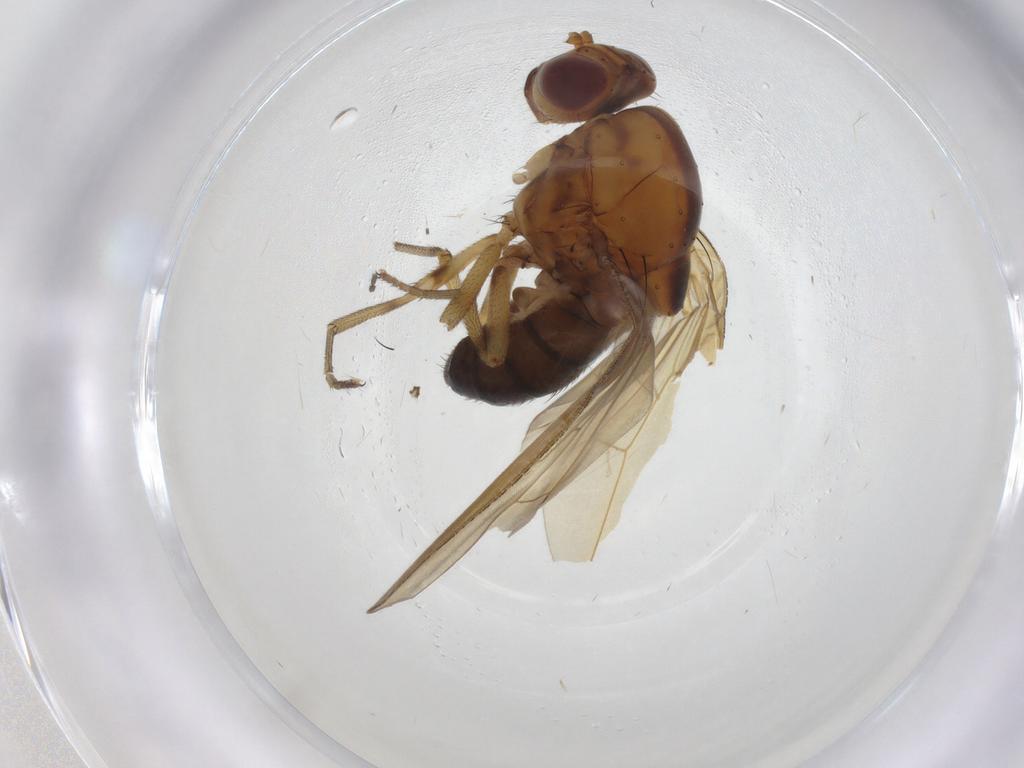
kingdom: Animalia
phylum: Arthropoda
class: Insecta
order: Diptera
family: Lauxaniidae
